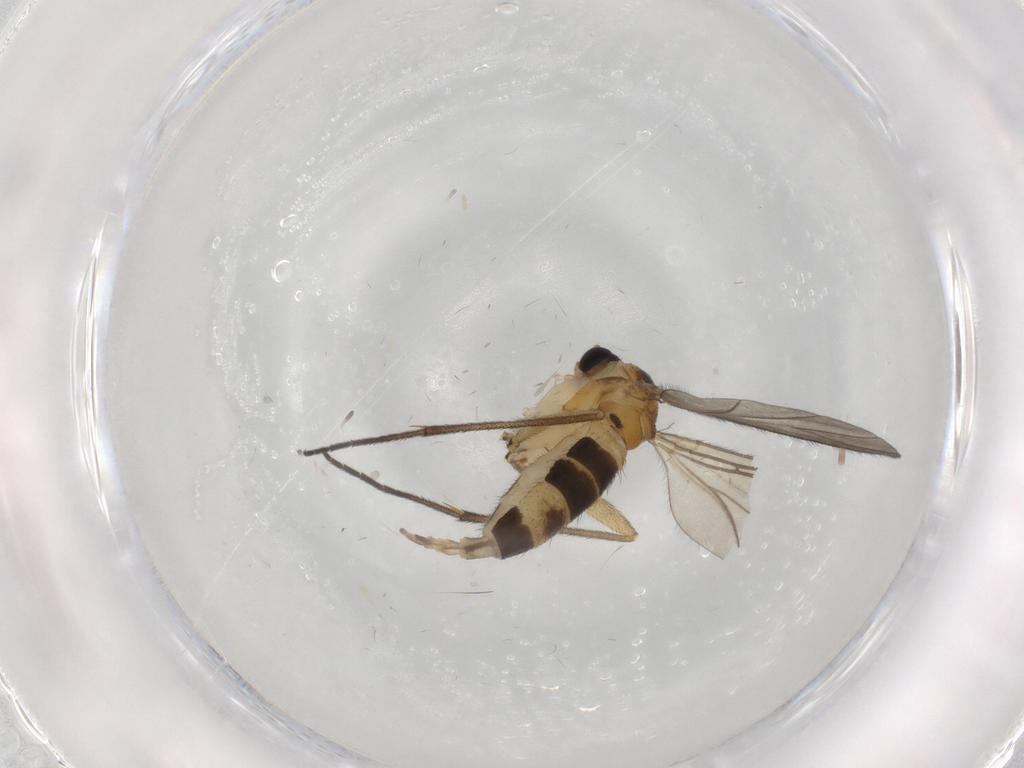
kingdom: Animalia
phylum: Arthropoda
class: Insecta
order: Diptera
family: Sciaridae
